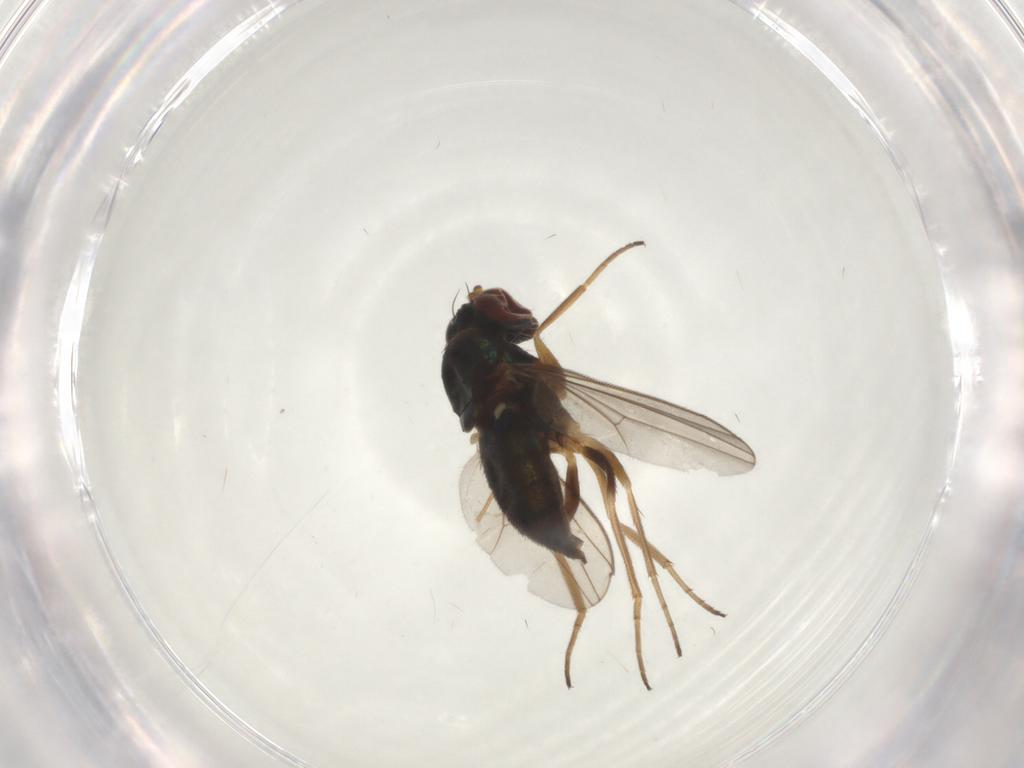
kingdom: Animalia
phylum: Arthropoda
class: Insecta
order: Diptera
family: Dolichopodidae
